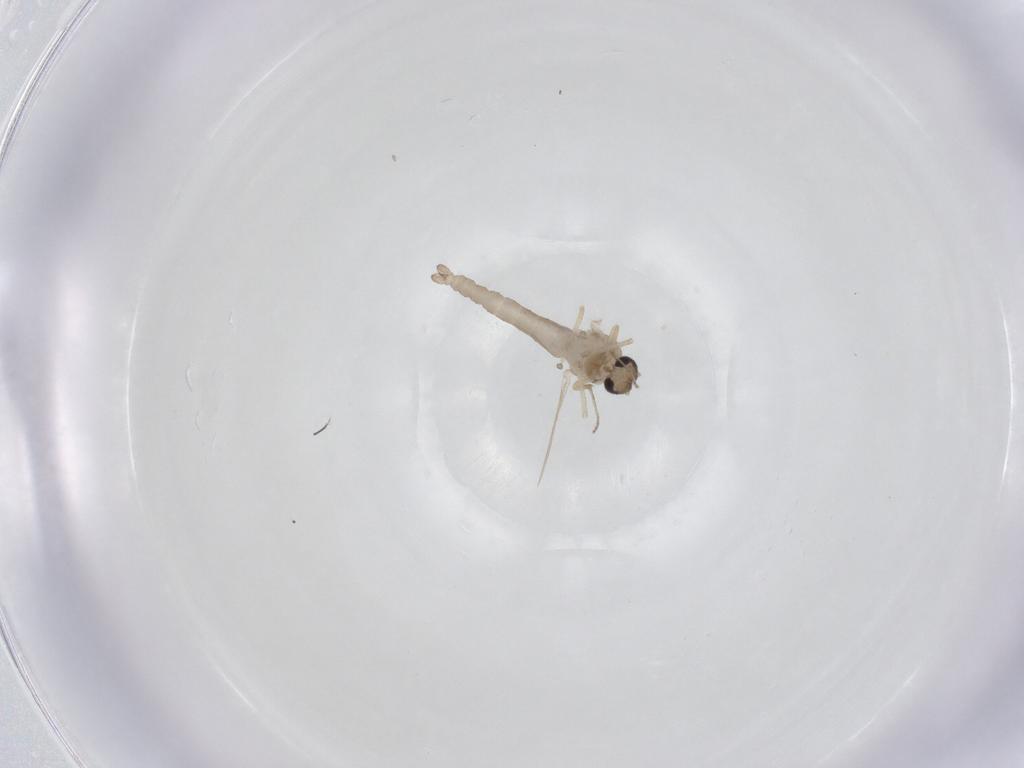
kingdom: Animalia
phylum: Arthropoda
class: Insecta
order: Diptera
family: Ceratopogonidae
